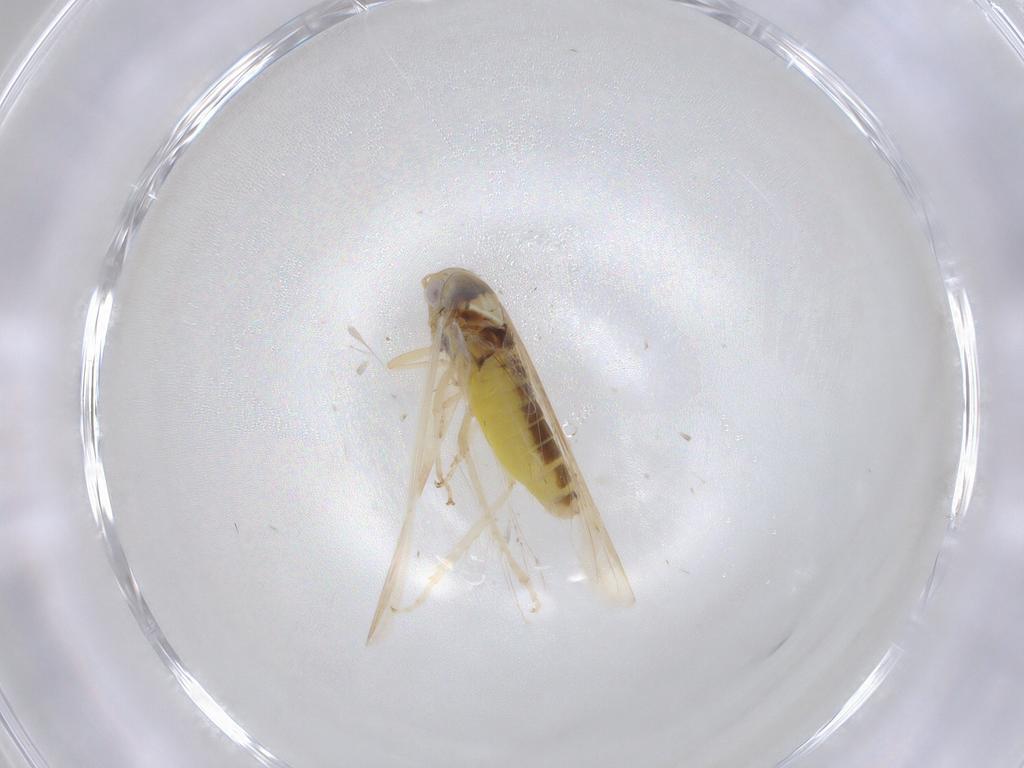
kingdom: Animalia
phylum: Arthropoda
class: Insecta
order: Hemiptera
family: Cicadellidae
